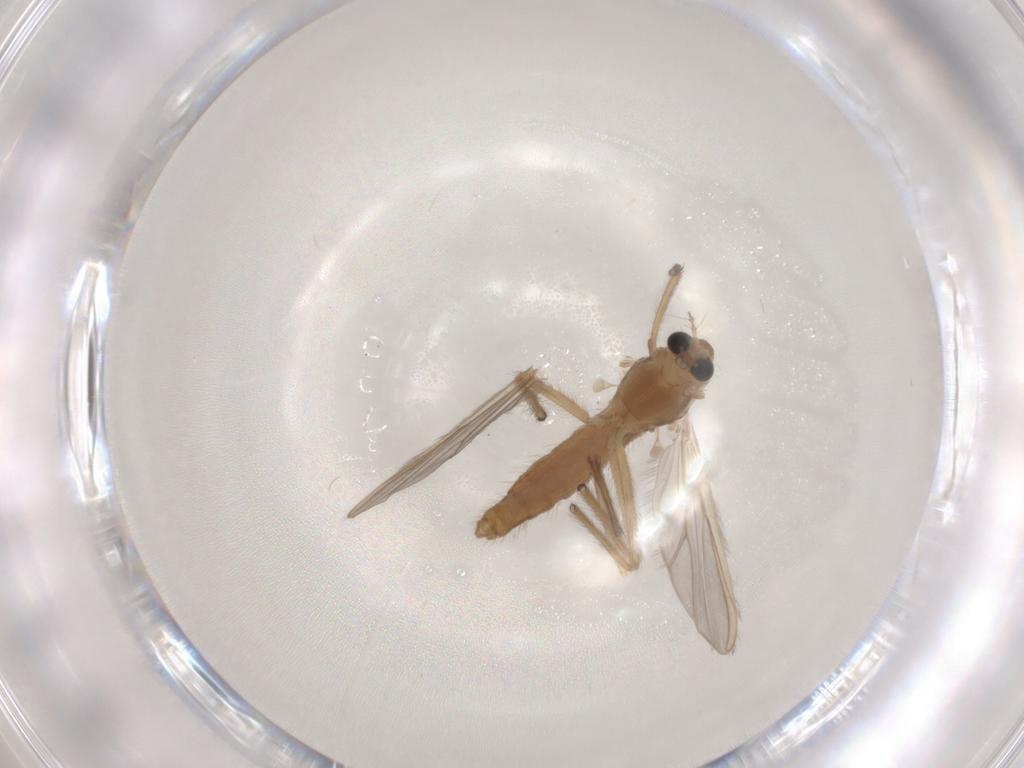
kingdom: Animalia
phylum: Arthropoda
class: Insecta
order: Diptera
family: Chironomidae
